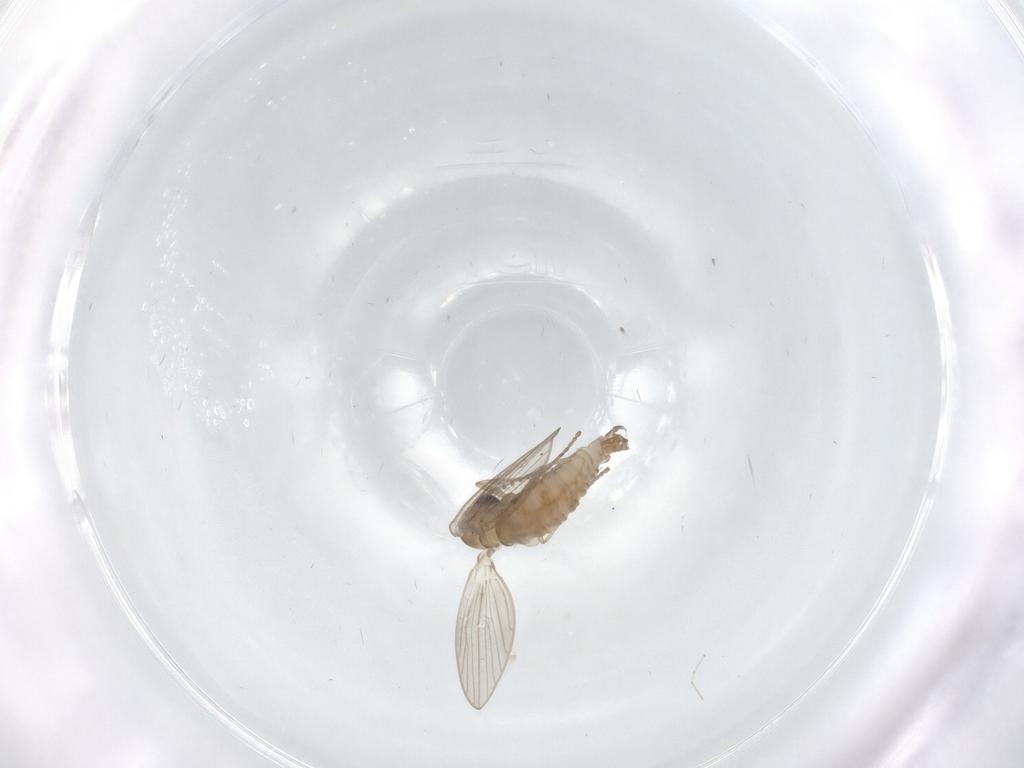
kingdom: Animalia
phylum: Arthropoda
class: Insecta
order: Diptera
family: Psychodidae
